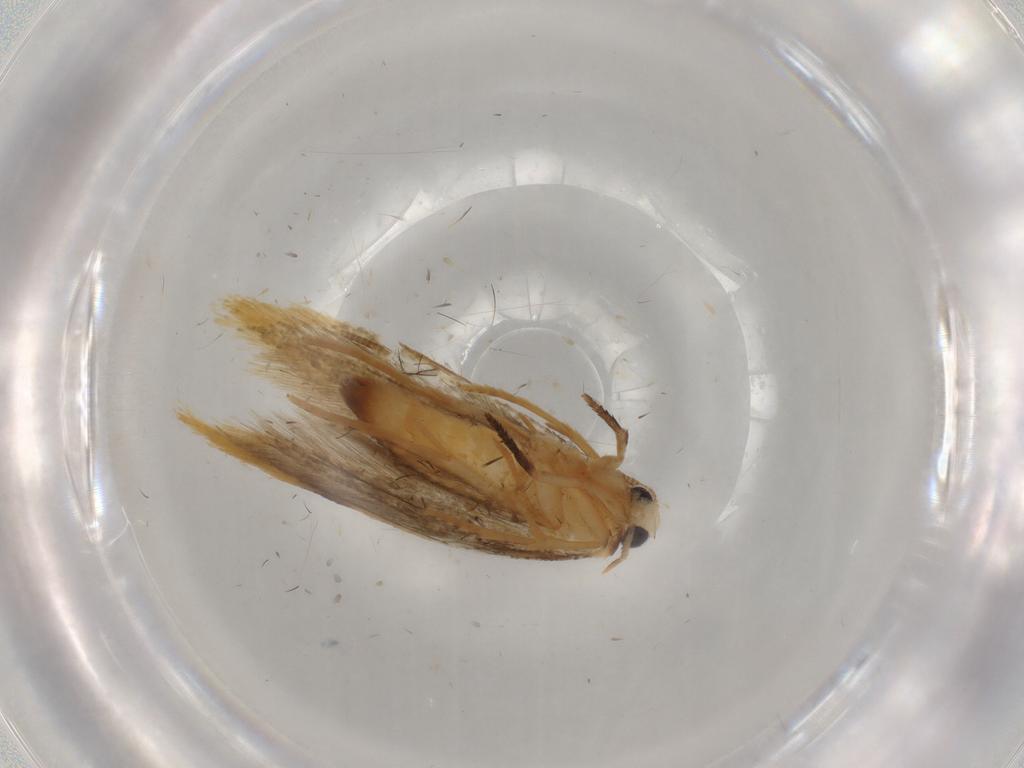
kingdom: Animalia
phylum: Arthropoda
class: Insecta
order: Lepidoptera
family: Tineidae
